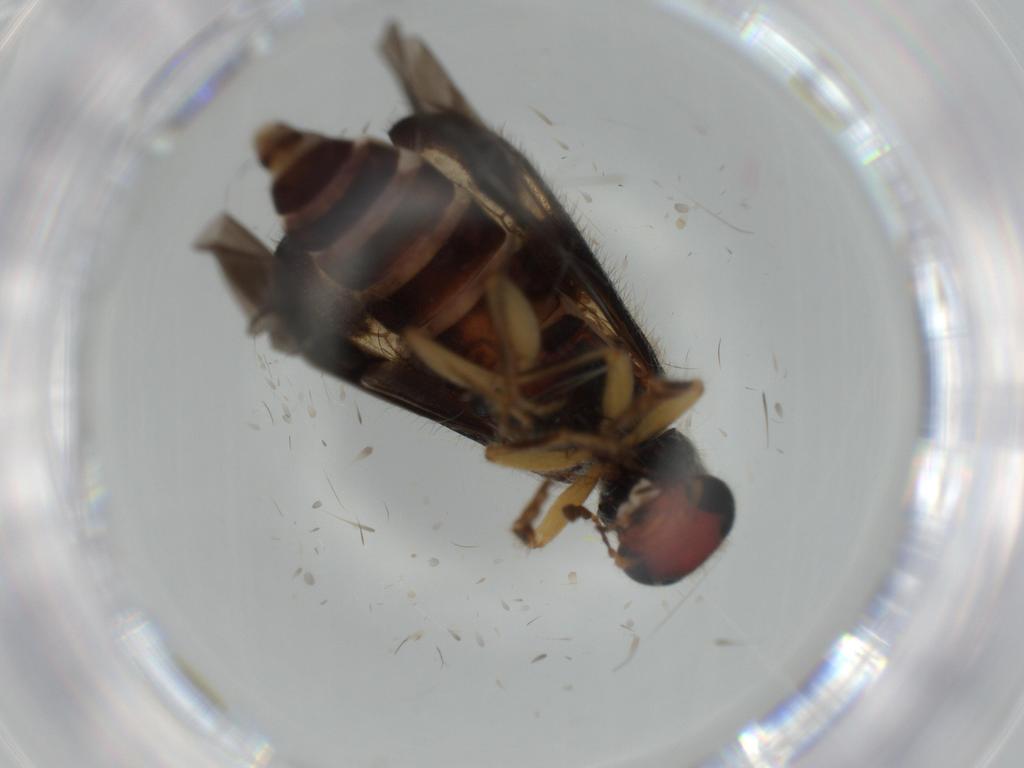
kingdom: Animalia
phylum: Arthropoda
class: Insecta
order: Coleoptera
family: Cleridae
